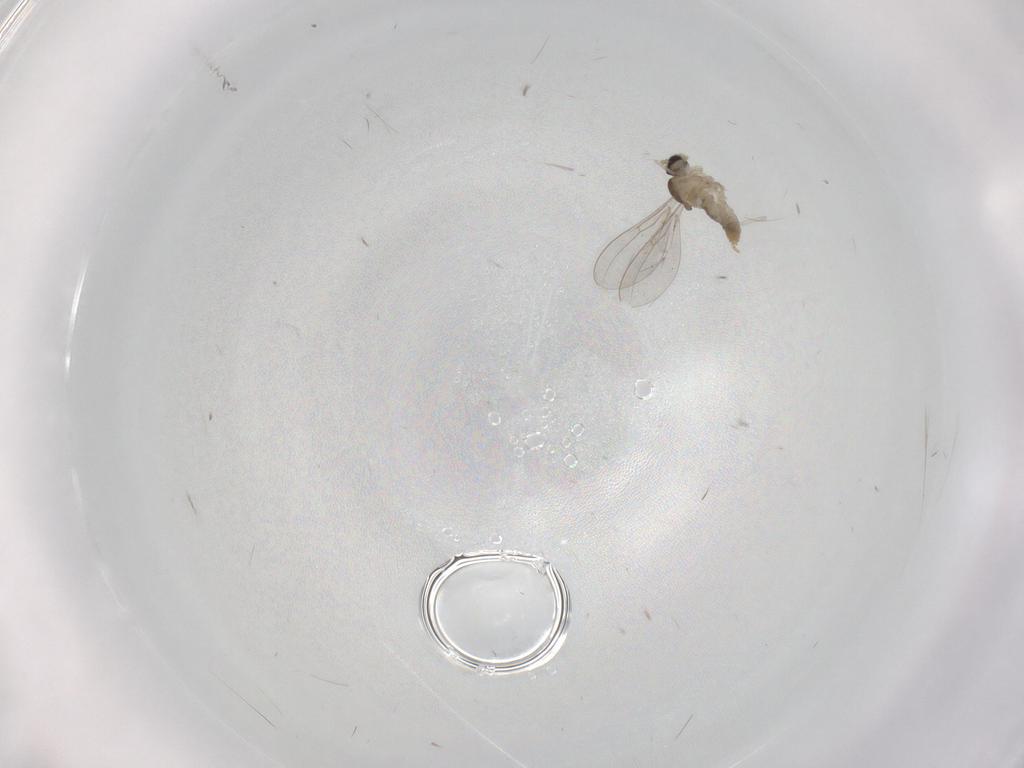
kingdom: Animalia
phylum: Arthropoda
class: Insecta
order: Diptera
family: Cecidomyiidae
